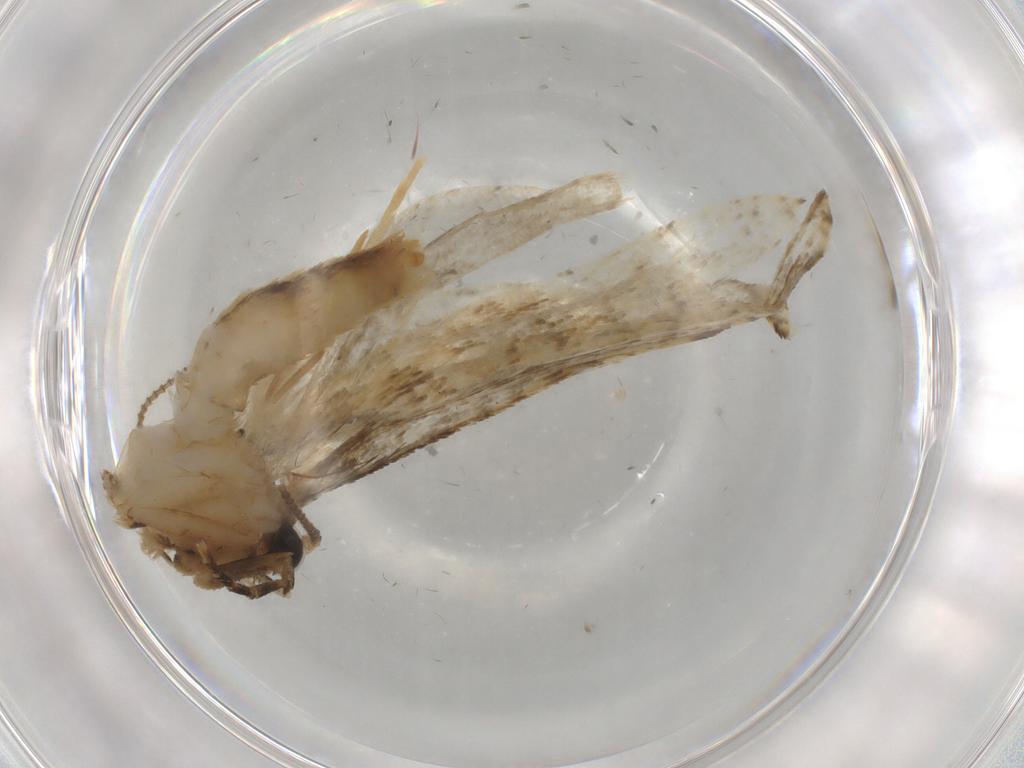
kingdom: Animalia
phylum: Arthropoda
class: Insecta
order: Lepidoptera
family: Tineidae
